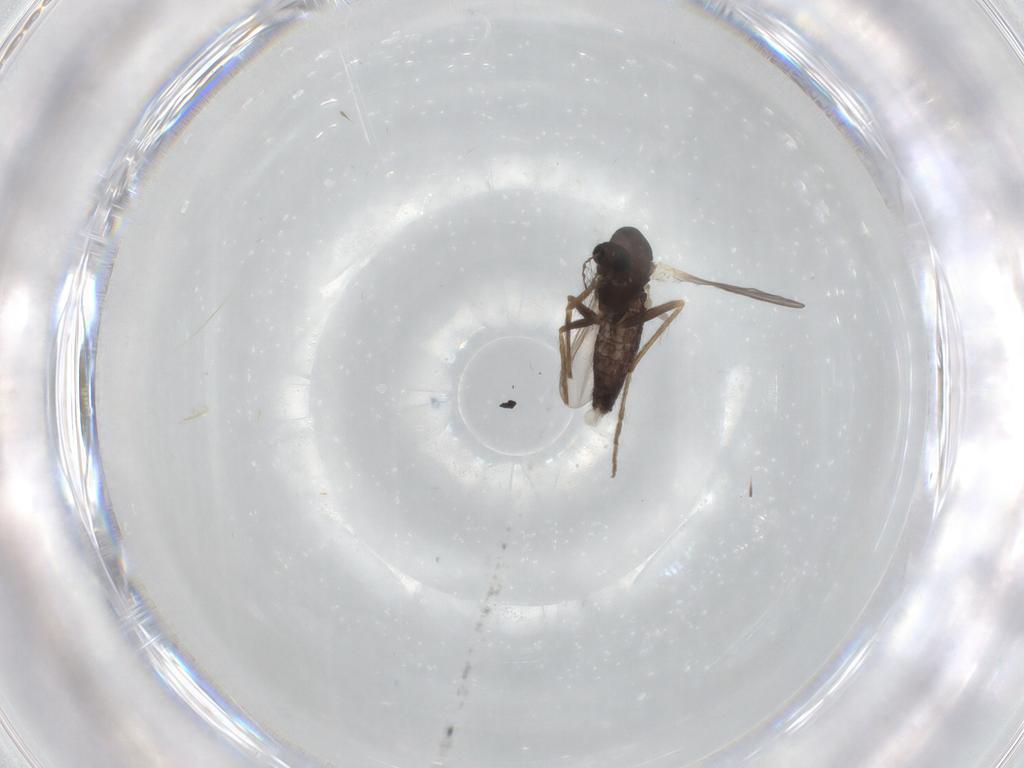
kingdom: Animalia
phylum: Arthropoda
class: Insecta
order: Diptera
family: Chironomidae
